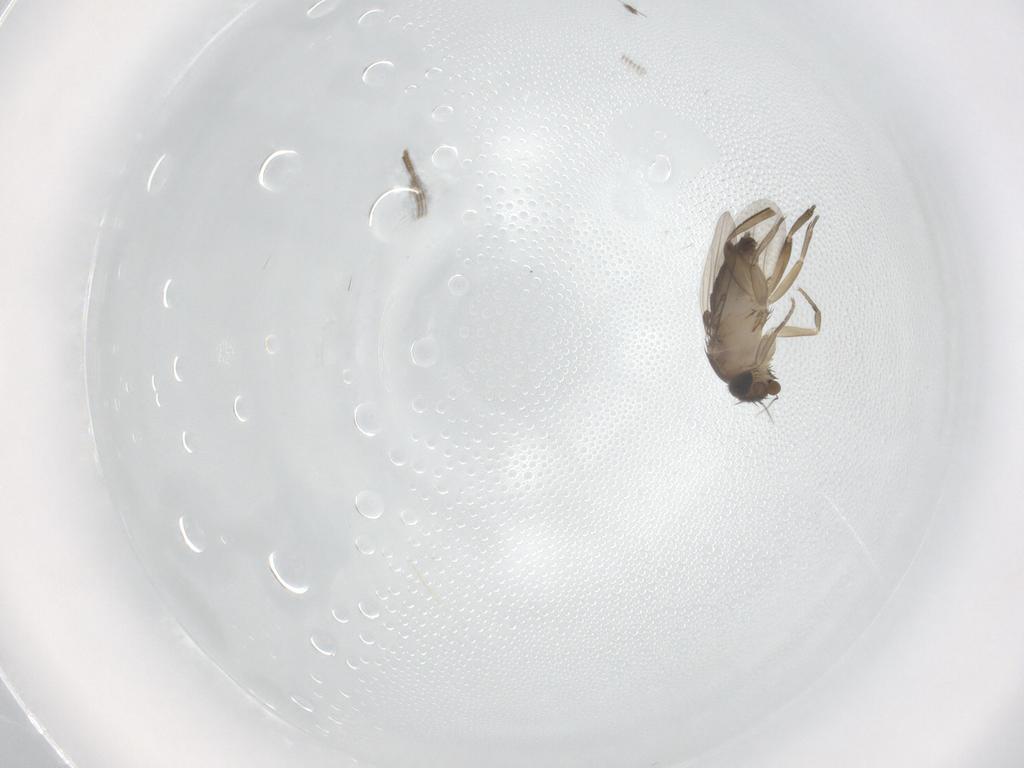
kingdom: Animalia
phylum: Arthropoda
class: Insecta
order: Diptera
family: Phoridae
